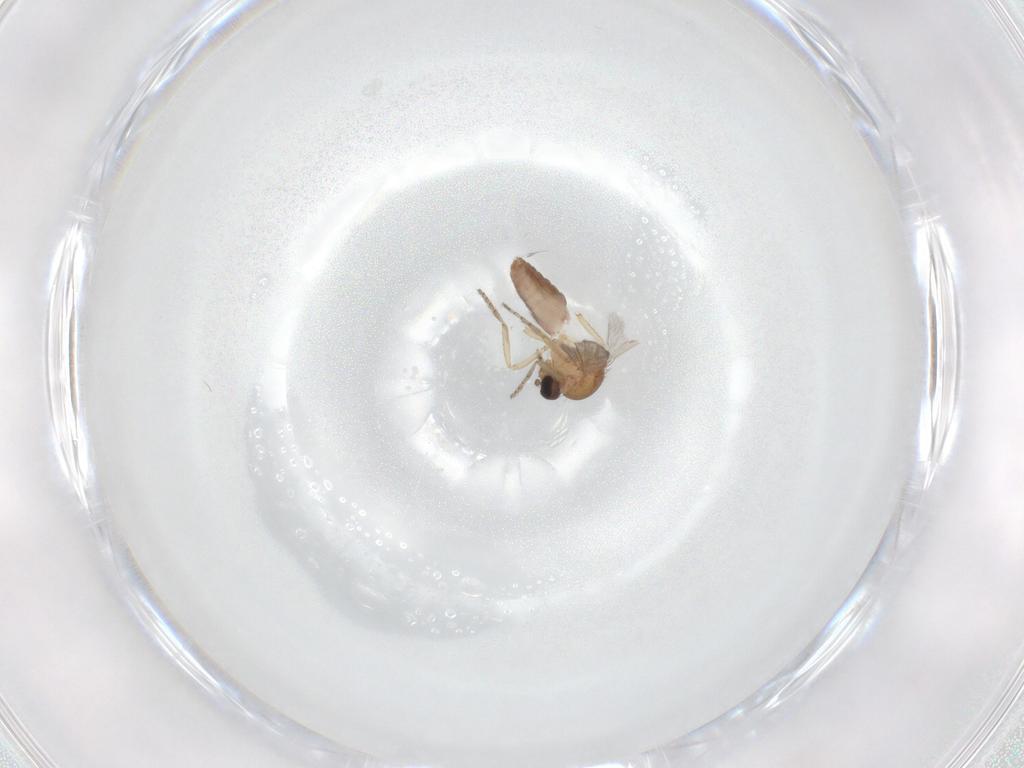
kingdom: Animalia
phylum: Arthropoda
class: Insecta
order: Diptera
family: Ceratopogonidae
